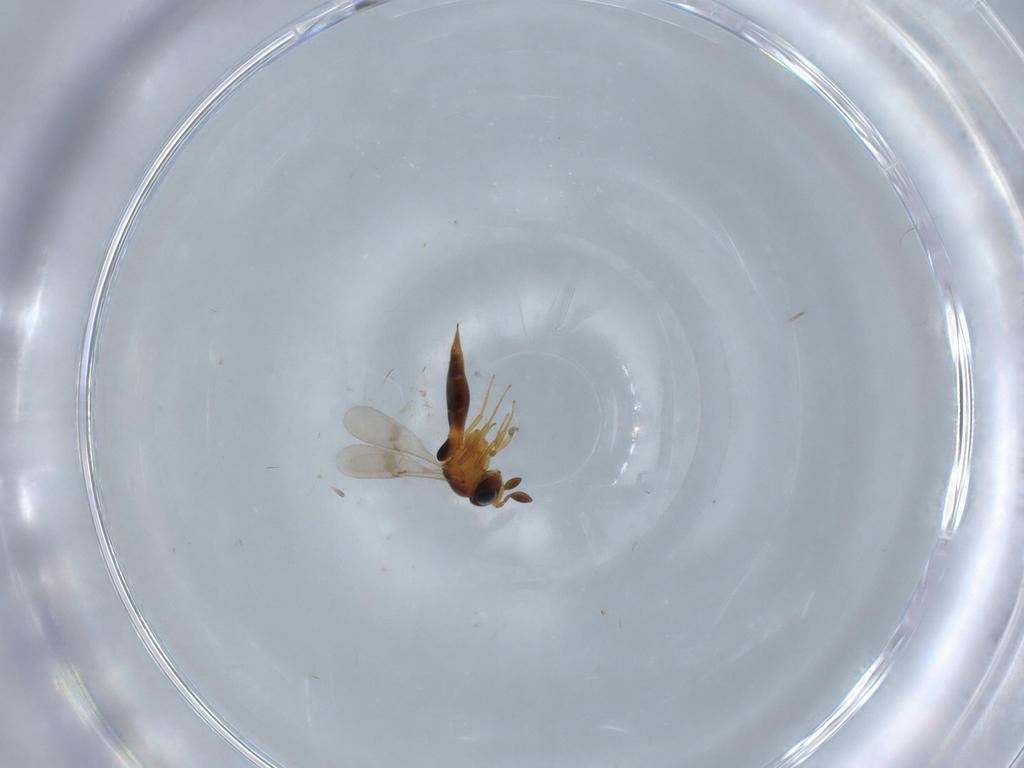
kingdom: Animalia
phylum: Arthropoda
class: Insecta
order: Hymenoptera
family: Scelionidae
